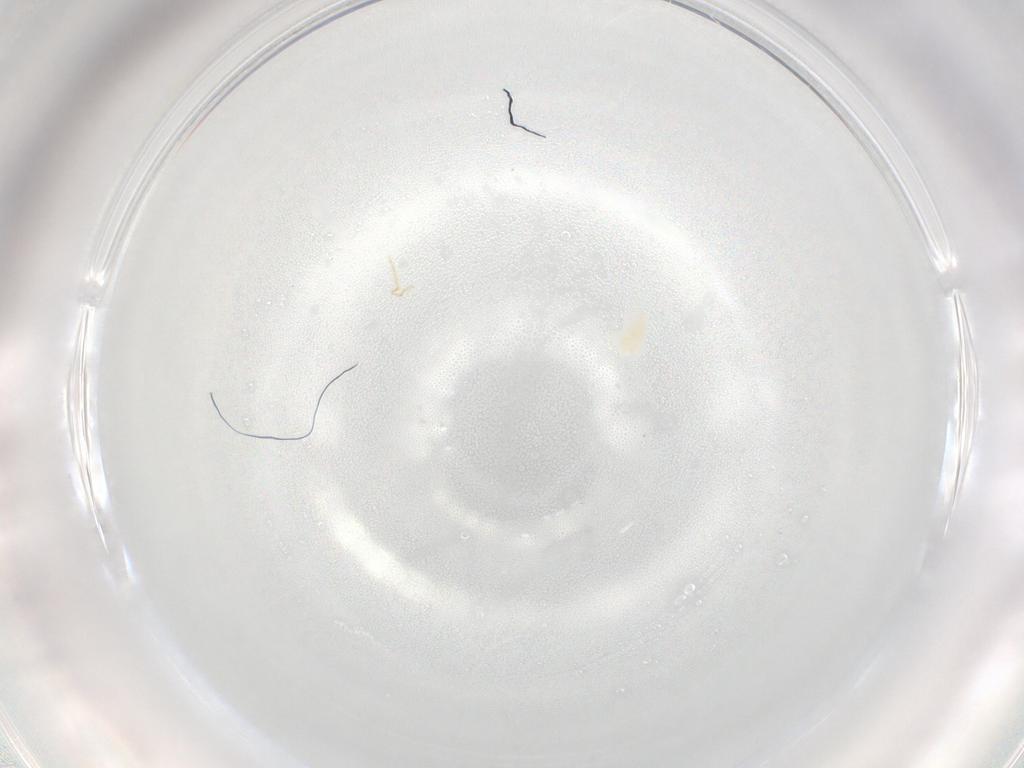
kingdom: Animalia
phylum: Arthropoda
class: Arachnida
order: Trombidiformes
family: Eupodidae
